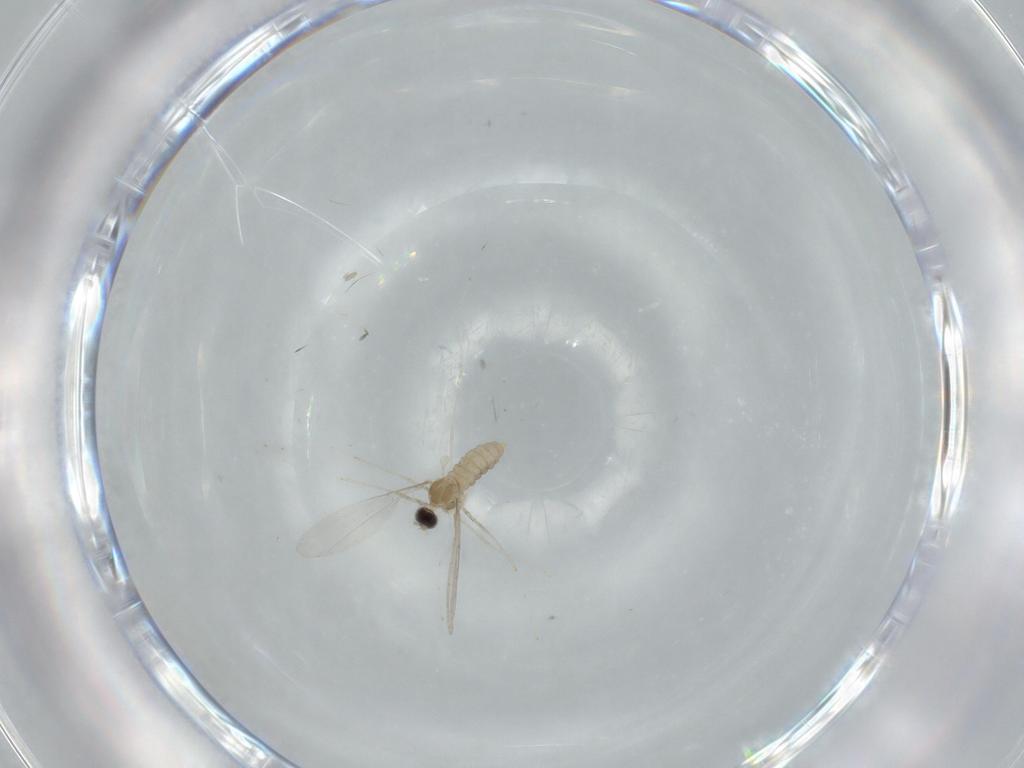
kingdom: Animalia
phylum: Arthropoda
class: Insecta
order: Diptera
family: Cecidomyiidae
